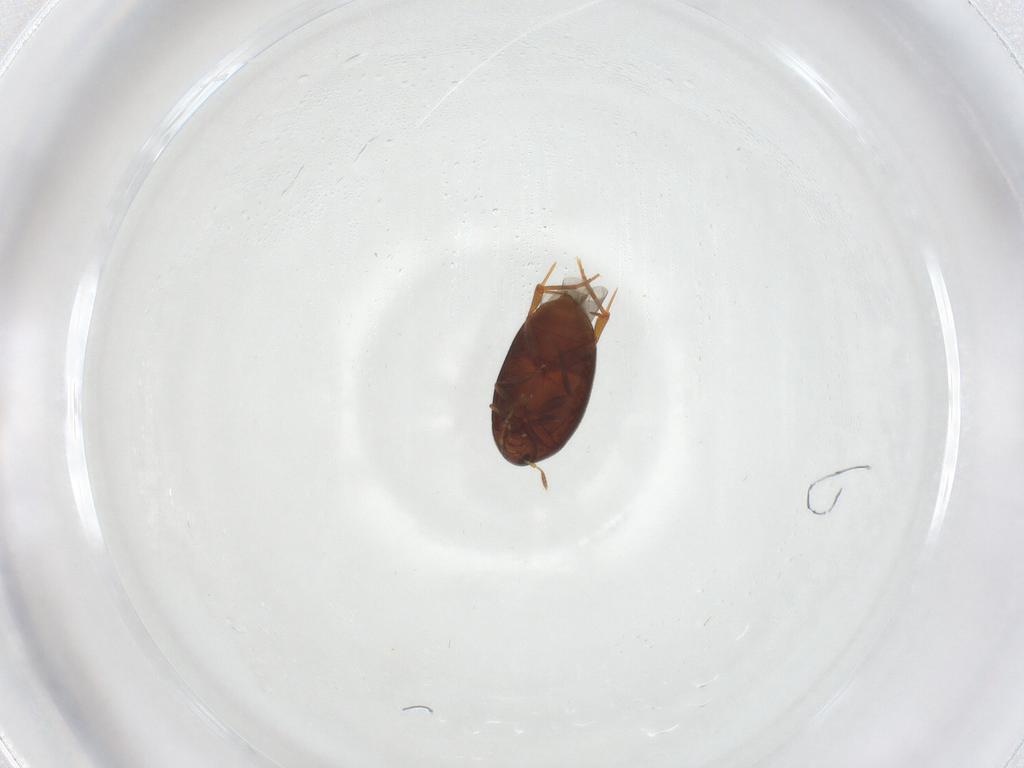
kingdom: Animalia
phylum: Arthropoda
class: Insecta
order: Coleoptera
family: Melandryidae
